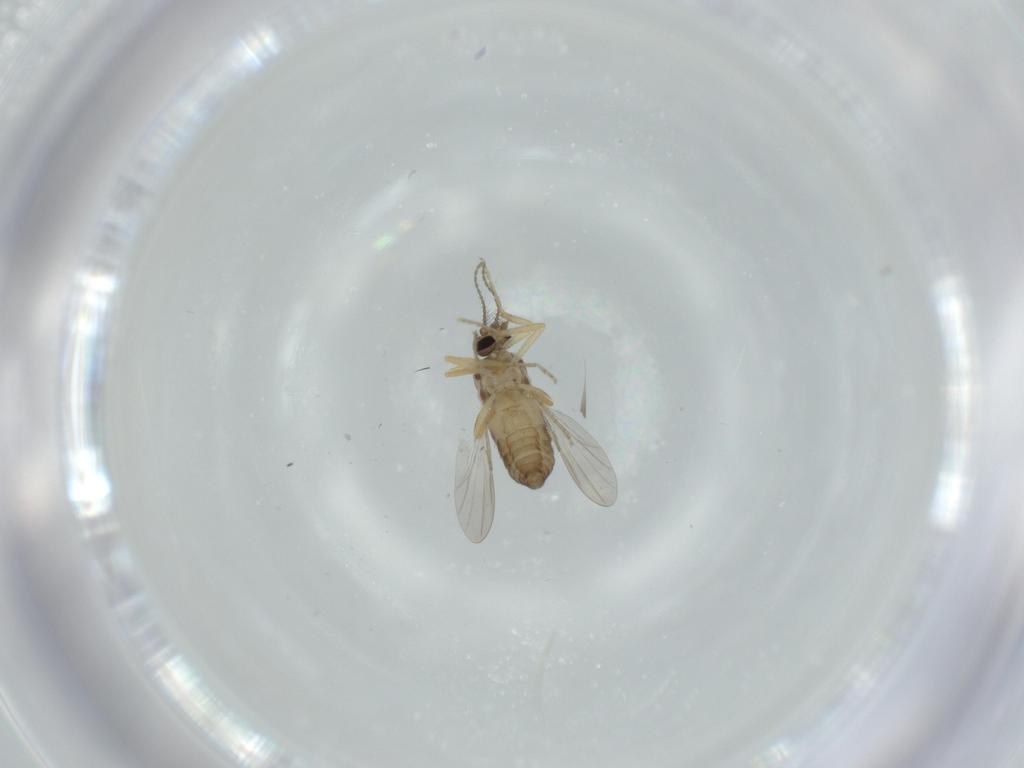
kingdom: Animalia
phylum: Arthropoda
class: Insecta
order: Diptera
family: Ceratopogonidae
